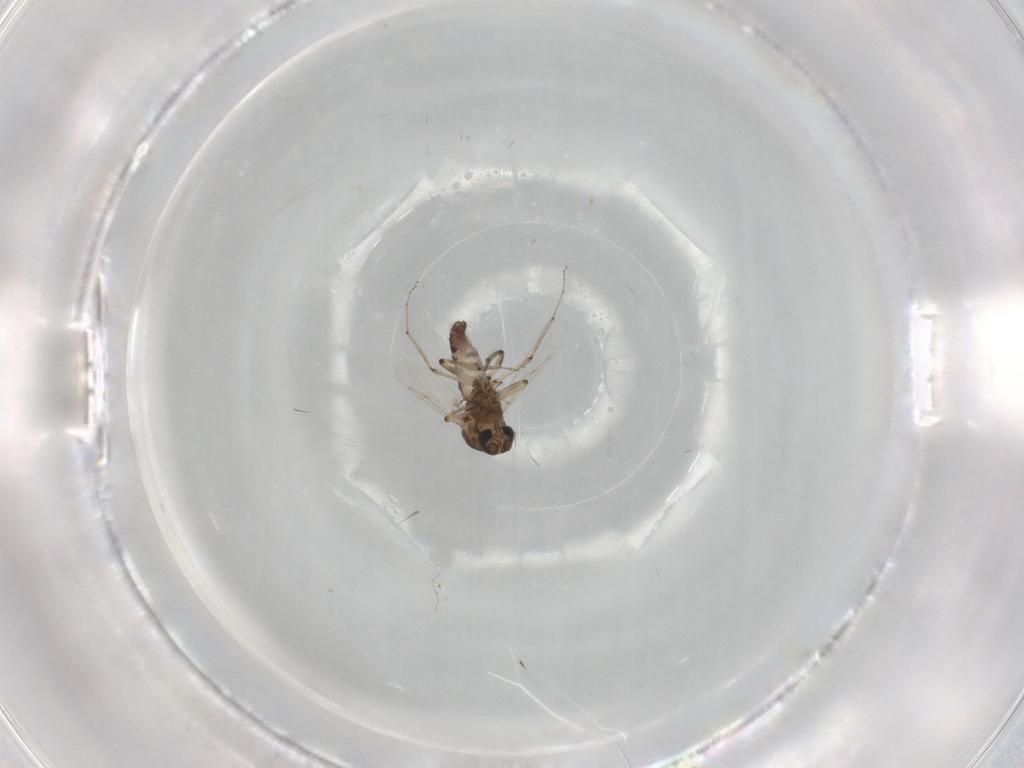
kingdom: Animalia
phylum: Arthropoda
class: Insecta
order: Diptera
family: Ceratopogonidae
